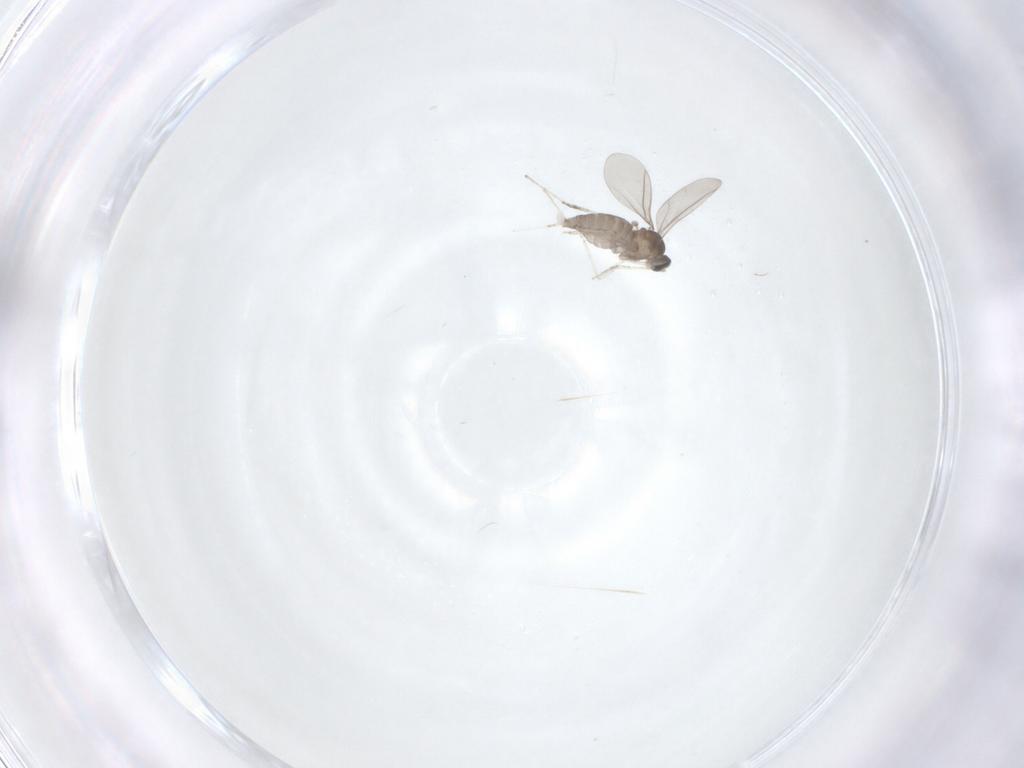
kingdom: Animalia
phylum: Arthropoda
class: Insecta
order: Diptera
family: Cecidomyiidae
